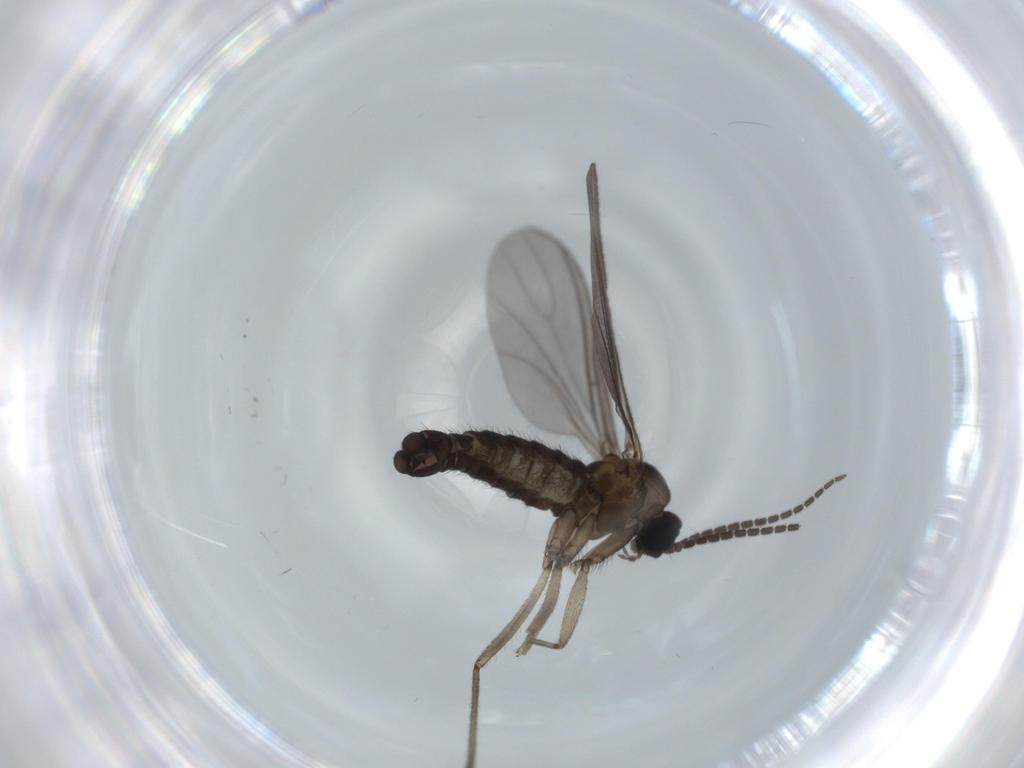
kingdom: Animalia
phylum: Arthropoda
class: Insecta
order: Diptera
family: Sciaridae
